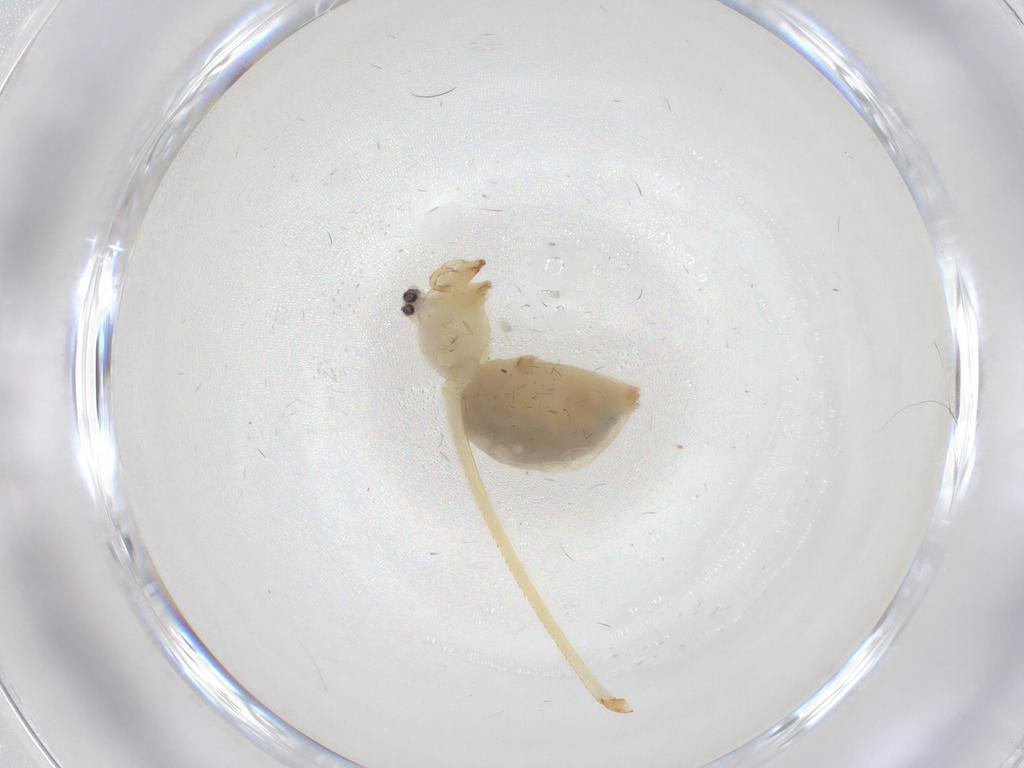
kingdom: Animalia
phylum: Arthropoda
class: Arachnida
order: Araneae
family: Pholcidae
